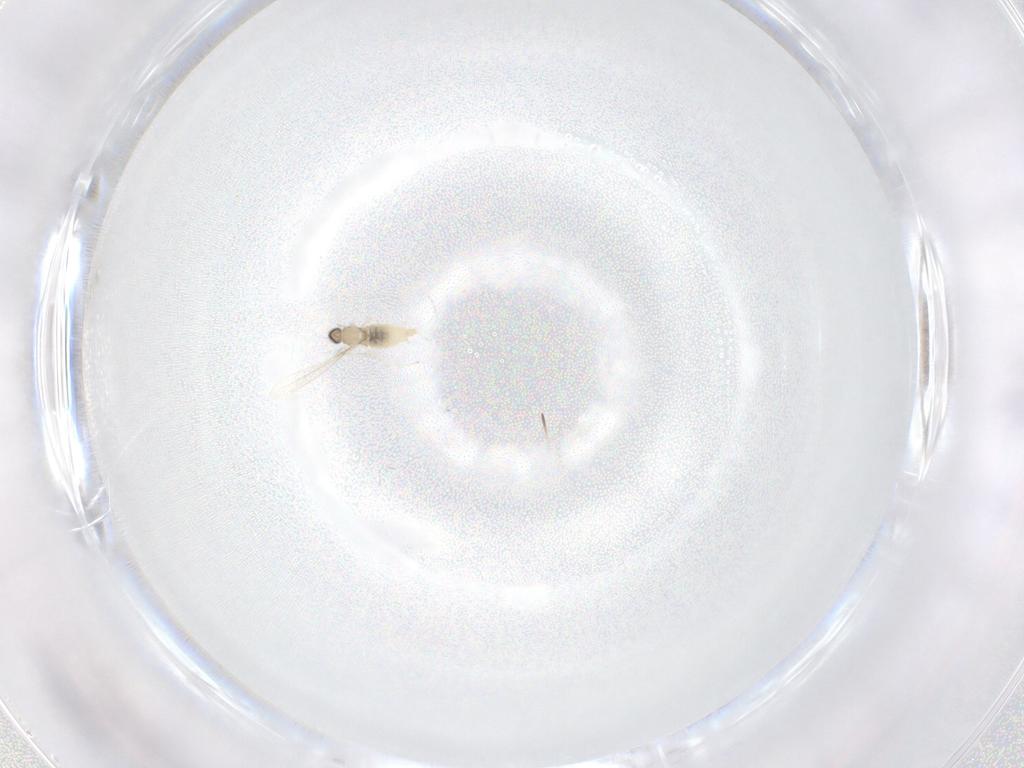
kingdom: Animalia
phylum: Arthropoda
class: Insecta
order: Diptera
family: Cecidomyiidae
